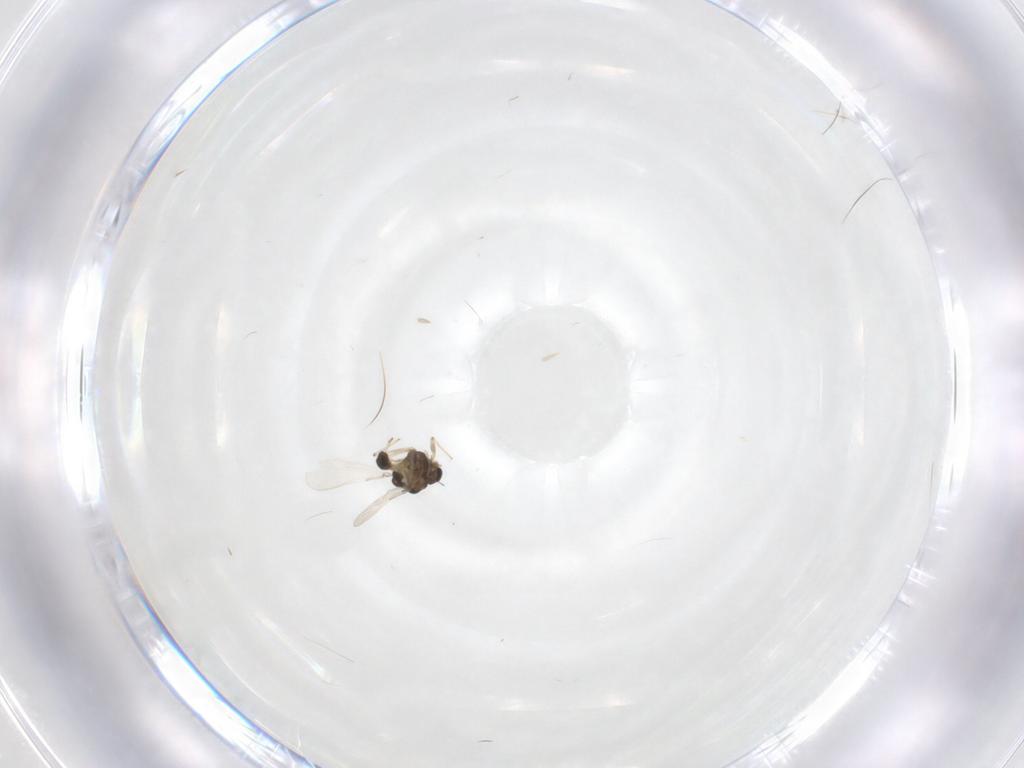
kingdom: Animalia
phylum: Arthropoda
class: Insecta
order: Diptera
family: Chironomidae
